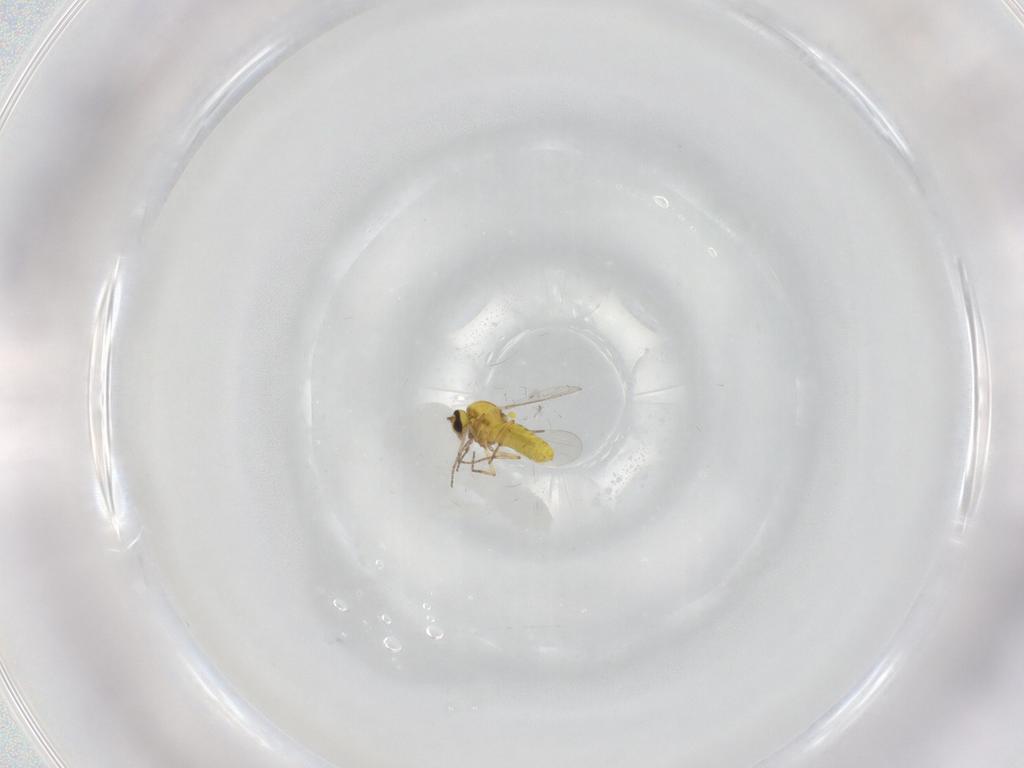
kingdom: Animalia
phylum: Arthropoda
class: Insecta
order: Diptera
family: Ceratopogonidae
